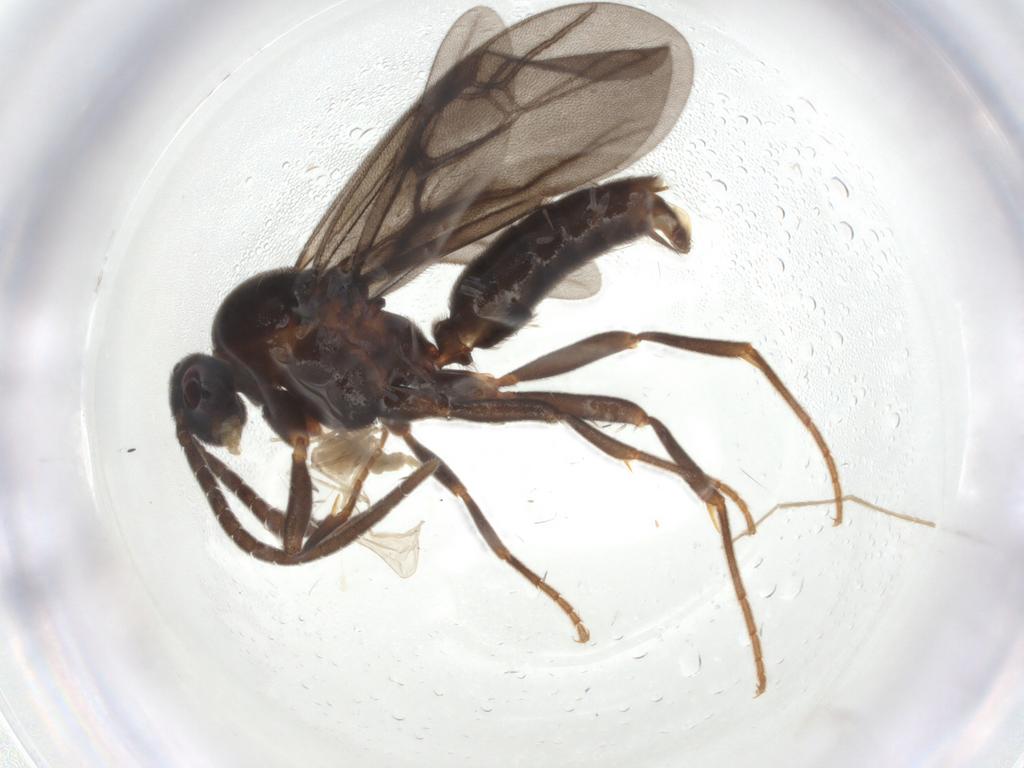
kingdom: Animalia
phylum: Arthropoda
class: Insecta
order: Hymenoptera
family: Formicidae
